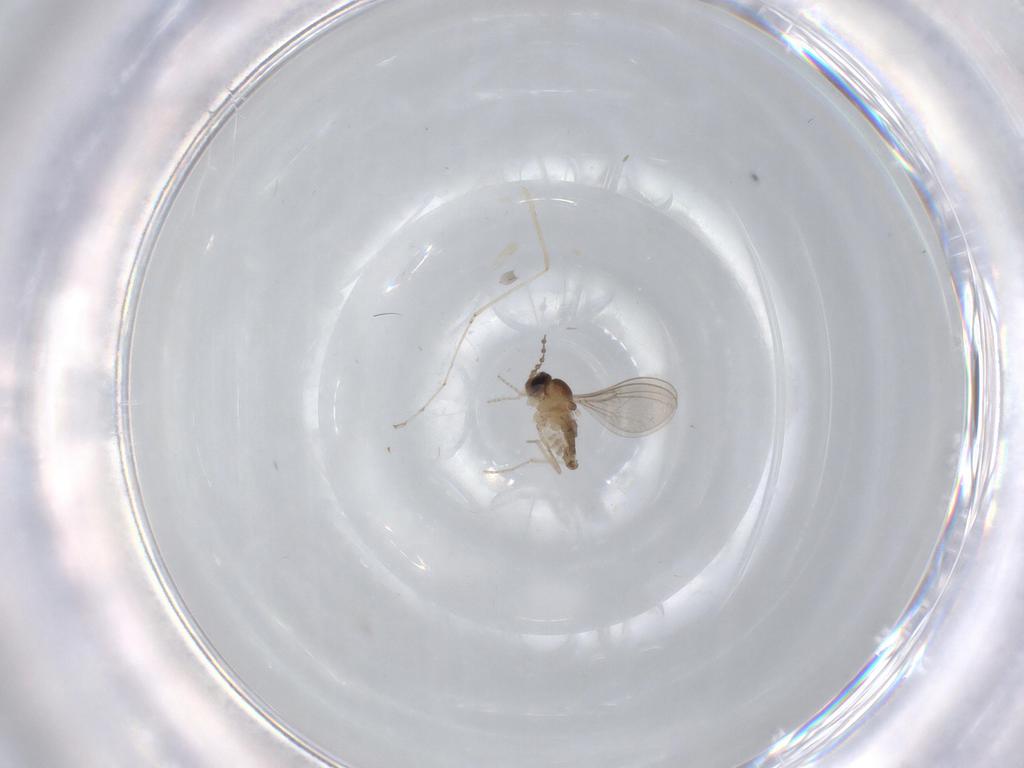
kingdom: Animalia
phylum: Arthropoda
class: Insecta
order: Diptera
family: Cecidomyiidae
